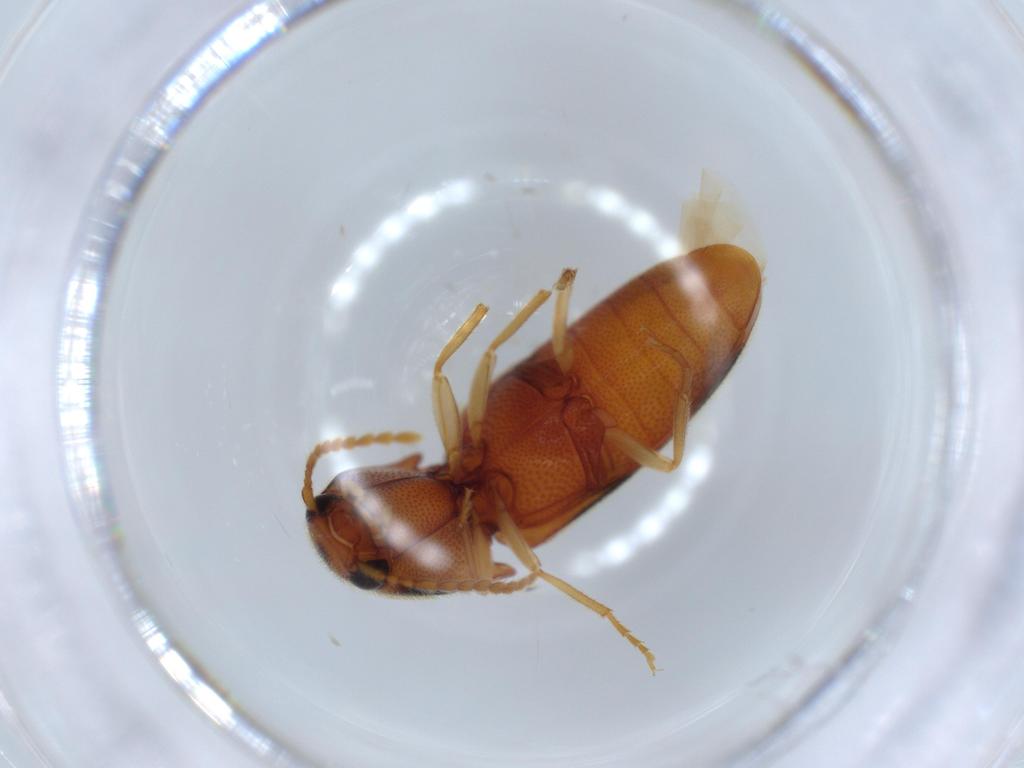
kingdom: Animalia
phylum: Arthropoda
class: Insecta
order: Coleoptera
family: Elateridae
